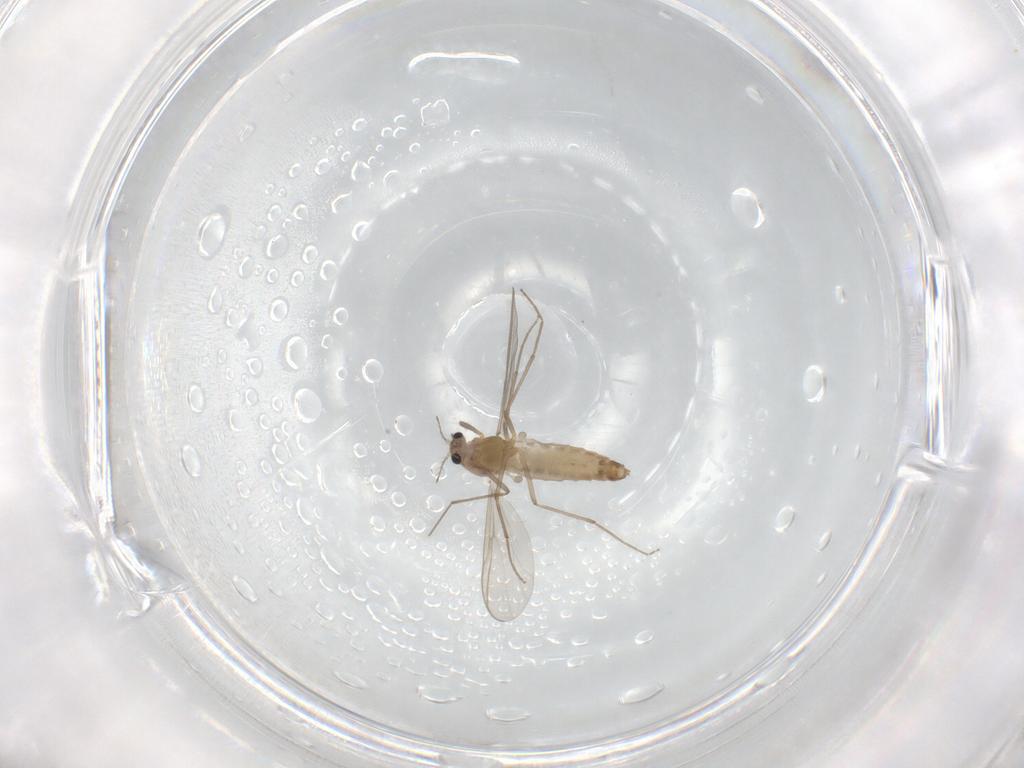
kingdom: Animalia
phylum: Arthropoda
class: Insecta
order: Diptera
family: Chironomidae
